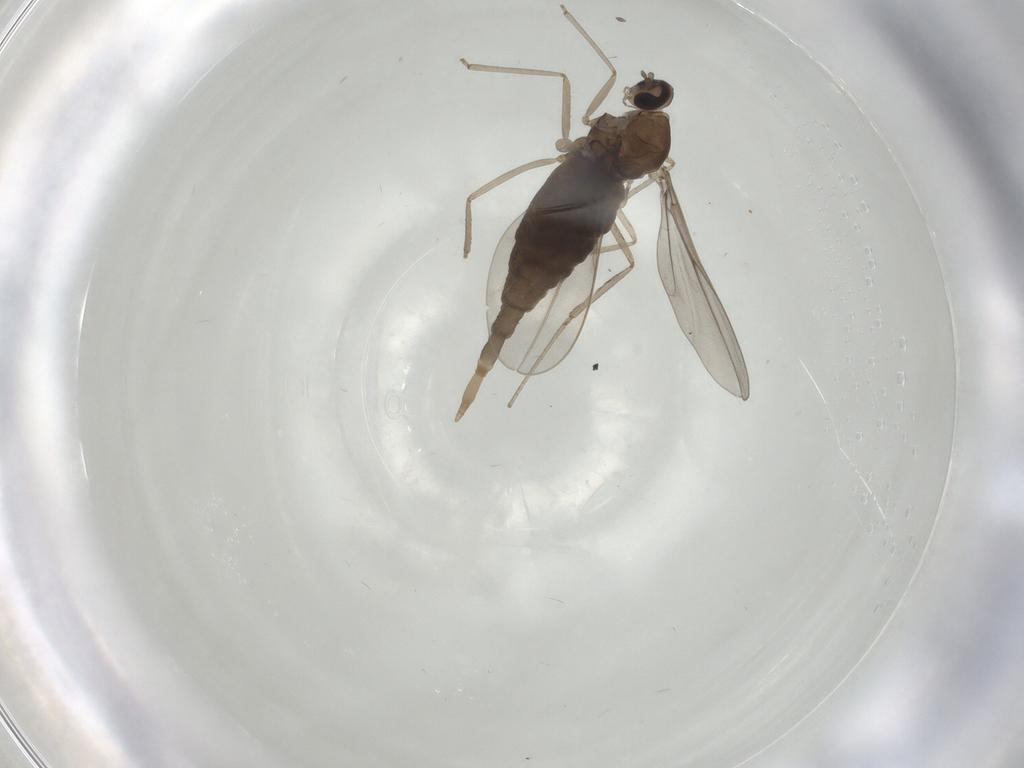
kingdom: Animalia
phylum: Arthropoda
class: Insecta
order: Diptera
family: Cecidomyiidae
